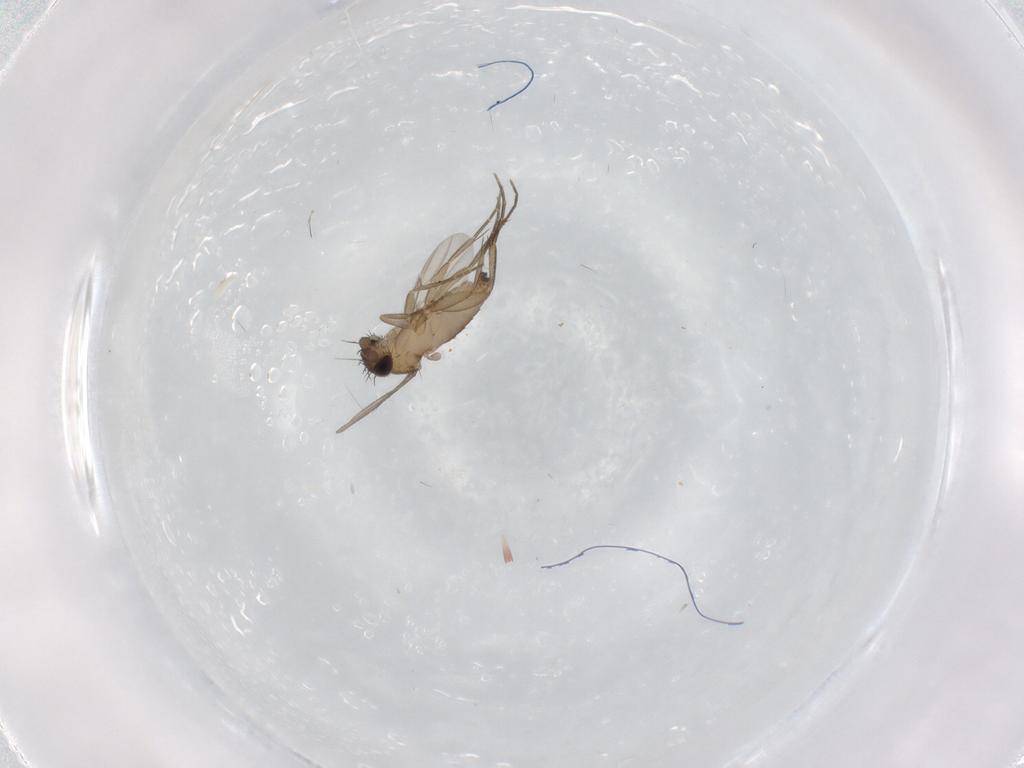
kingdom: Animalia
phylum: Arthropoda
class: Insecta
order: Diptera
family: Phoridae
